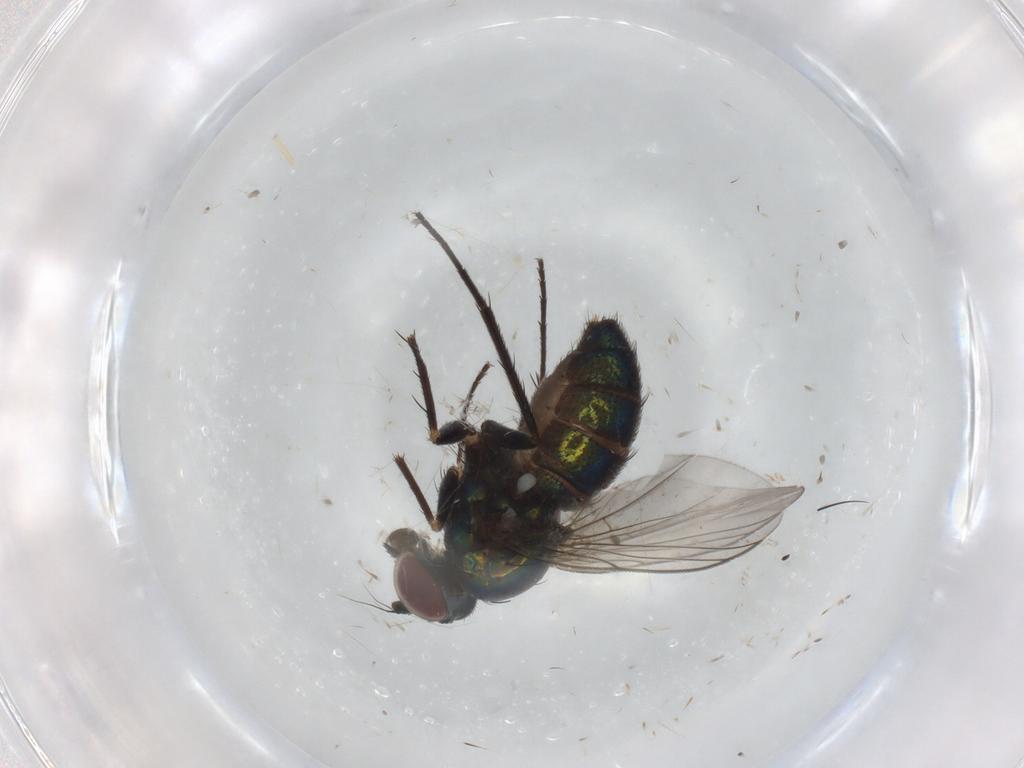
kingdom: Animalia
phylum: Arthropoda
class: Insecta
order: Diptera
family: Dolichopodidae
